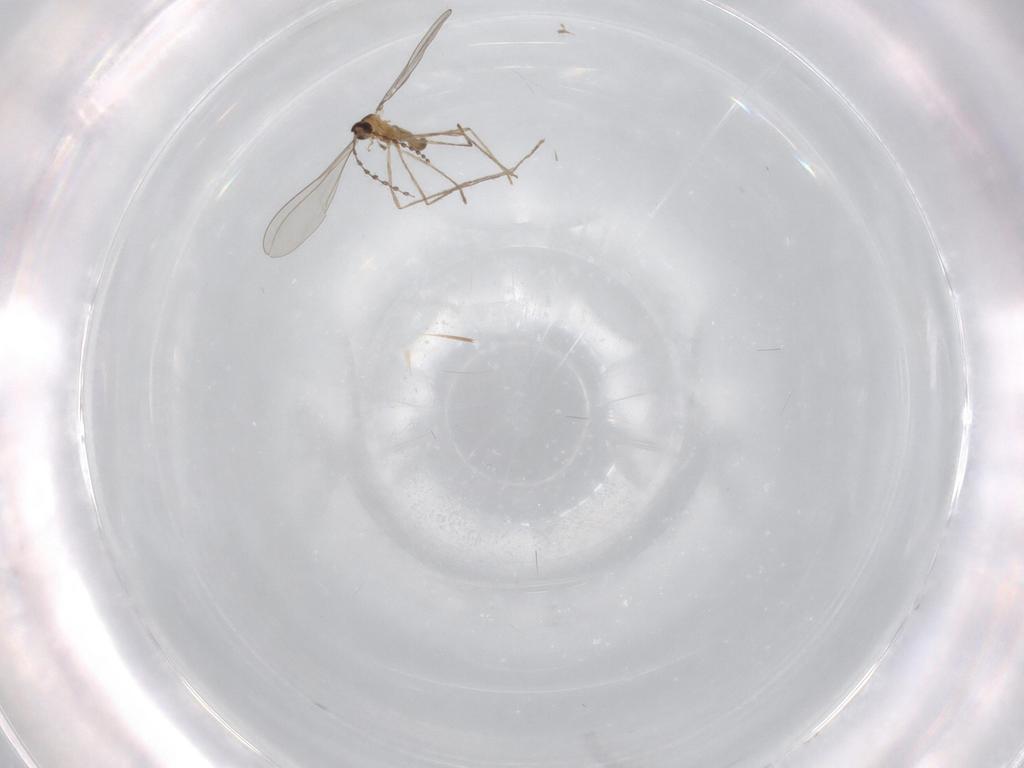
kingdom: Animalia
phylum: Arthropoda
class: Insecta
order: Diptera
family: Cecidomyiidae
